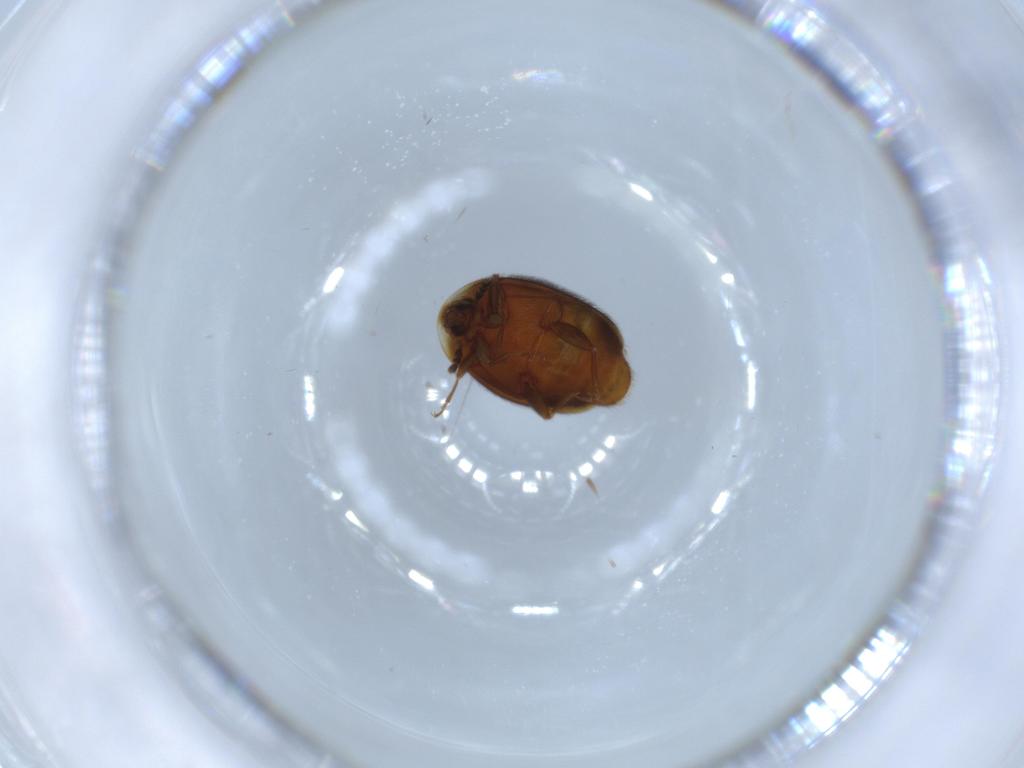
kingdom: Animalia
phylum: Arthropoda
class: Insecta
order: Coleoptera
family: Corylophidae
